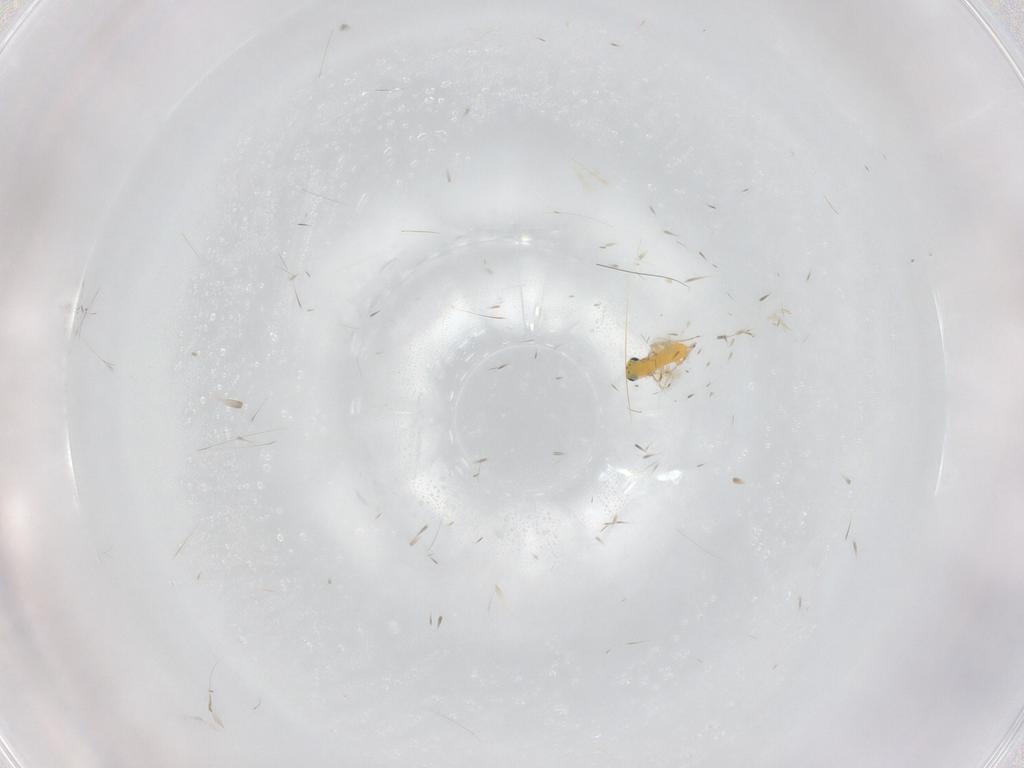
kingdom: Animalia
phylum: Arthropoda
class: Insecta
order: Hymenoptera
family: Trichogrammatidae
